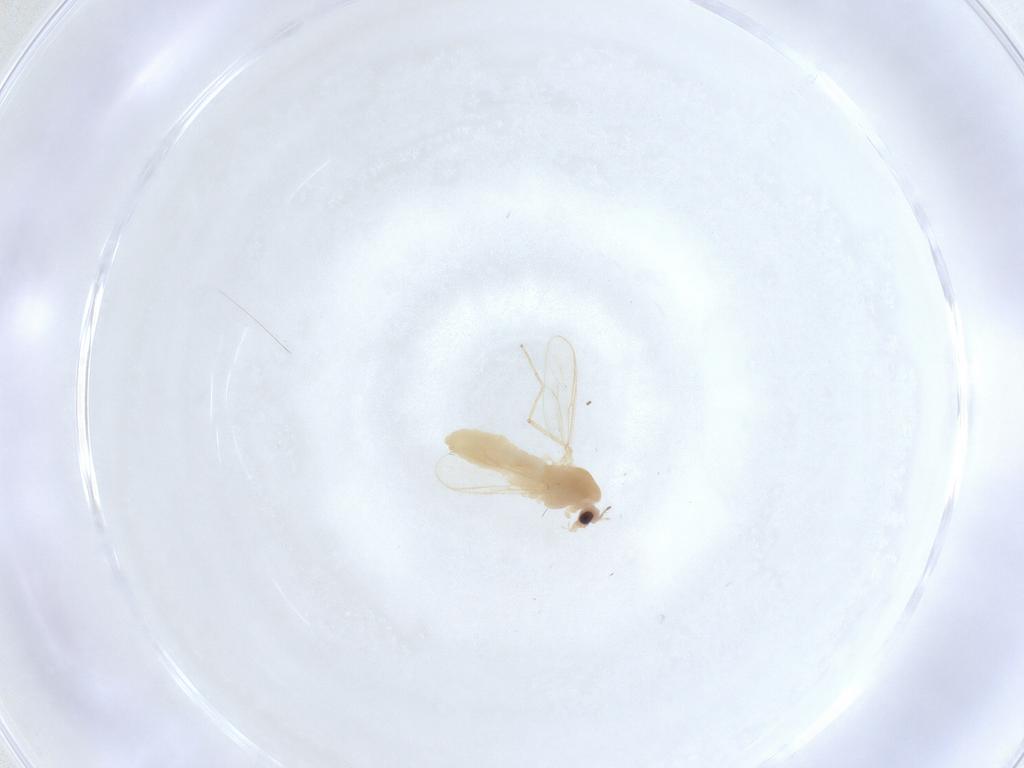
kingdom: Animalia
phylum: Arthropoda
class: Insecta
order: Diptera
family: Chironomidae
